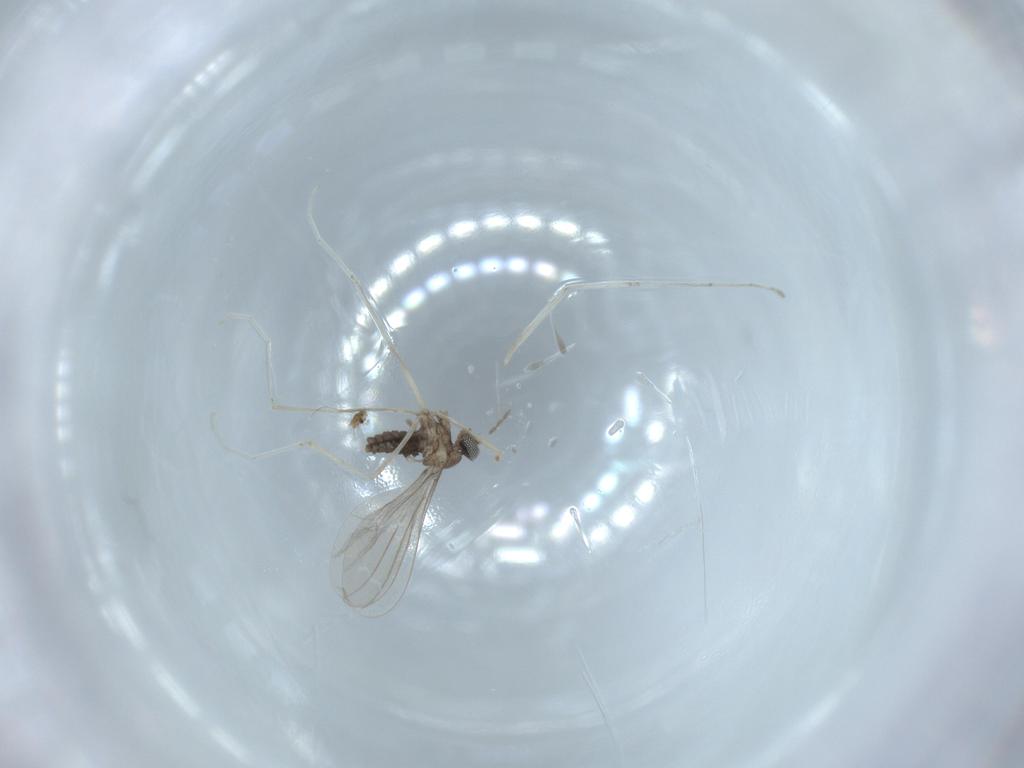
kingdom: Animalia
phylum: Arthropoda
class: Insecta
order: Diptera
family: Cecidomyiidae
